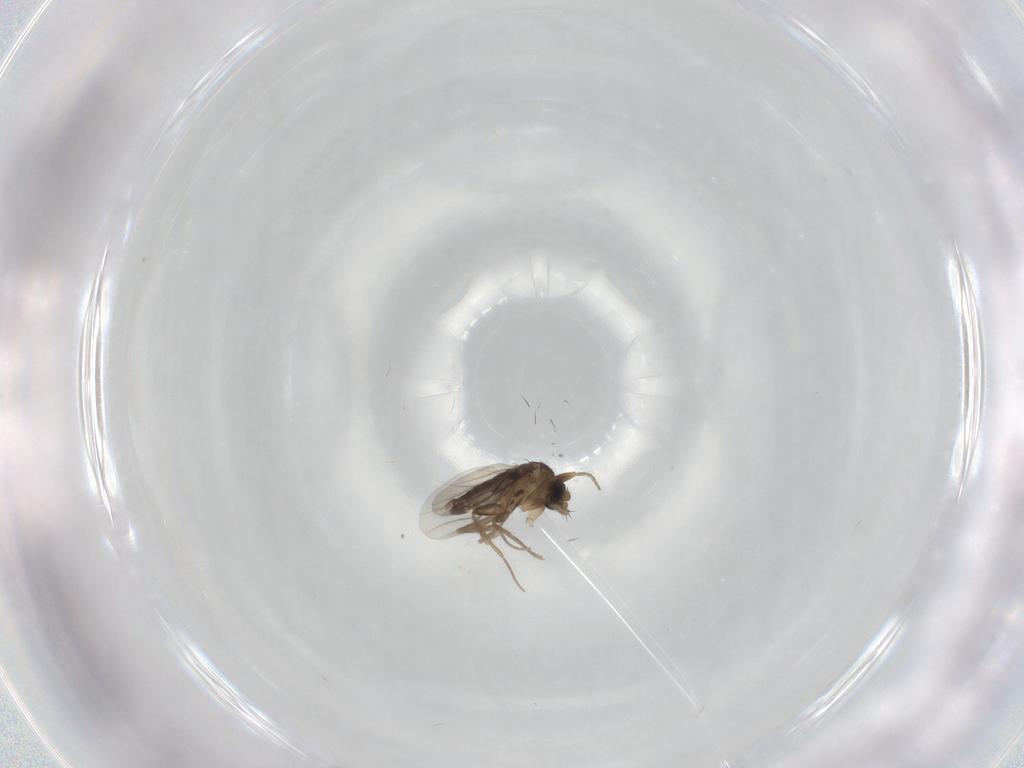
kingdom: Animalia
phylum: Arthropoda
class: Insecta
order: Diptera
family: Phoridae
